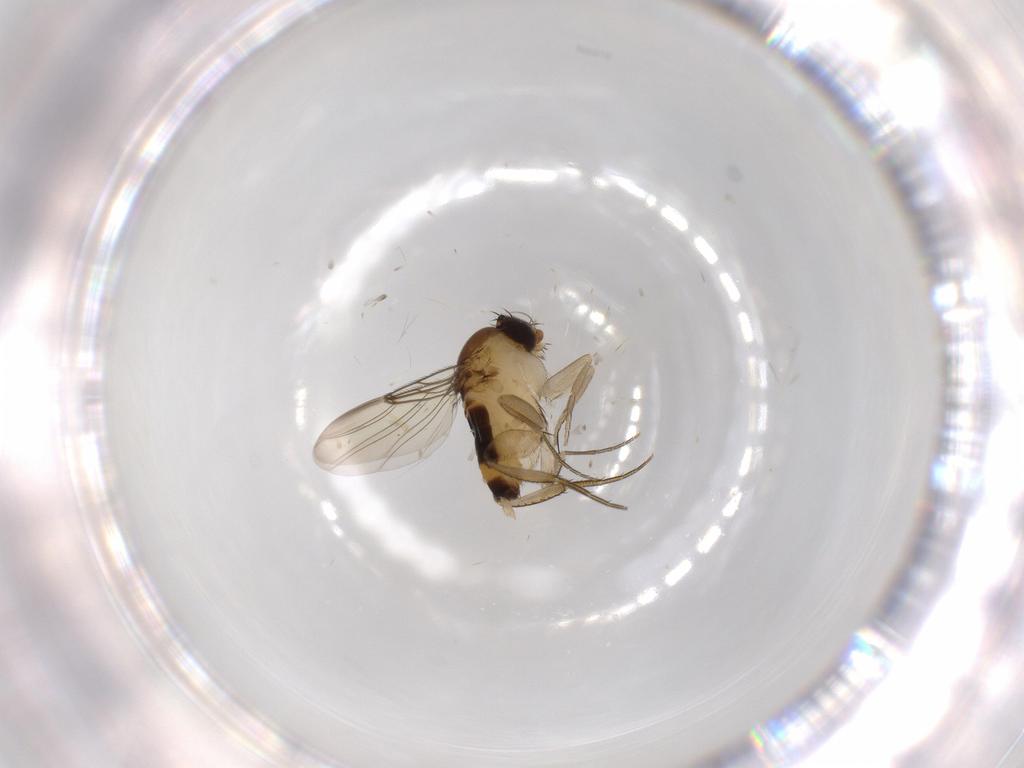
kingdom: Animalia
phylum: Arthropoda
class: Insecta
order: Diptera
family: Phoridae
